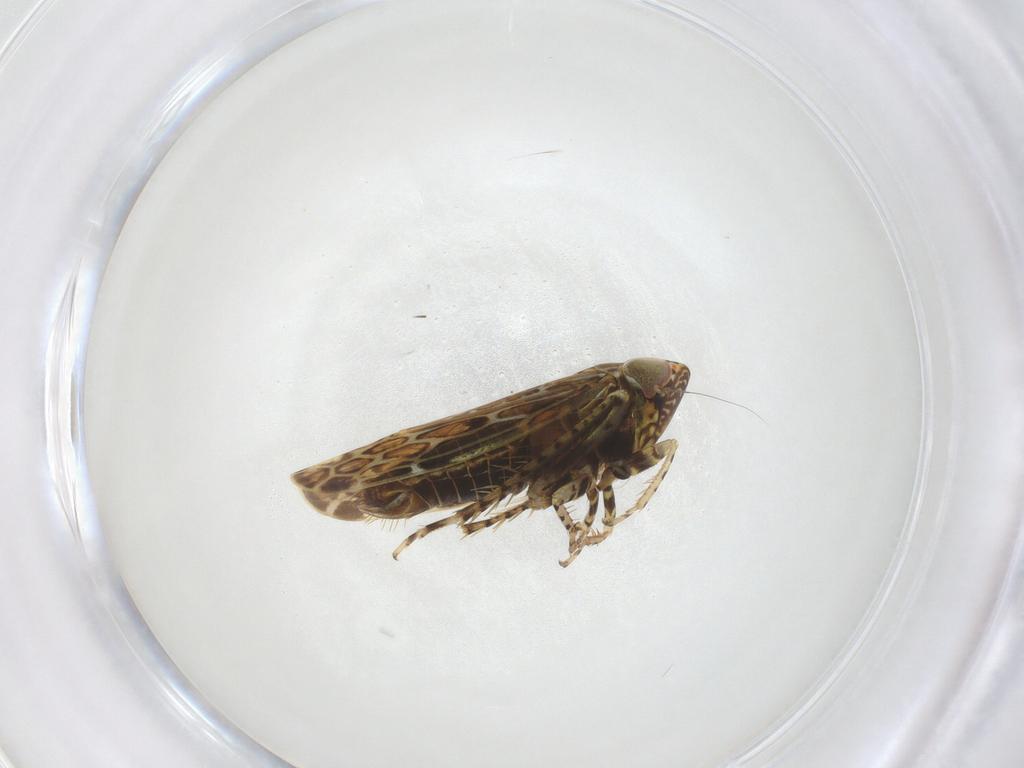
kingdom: Animalia
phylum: Arthropoda
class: Insecta
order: Hemiptera
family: Cicadellidae
